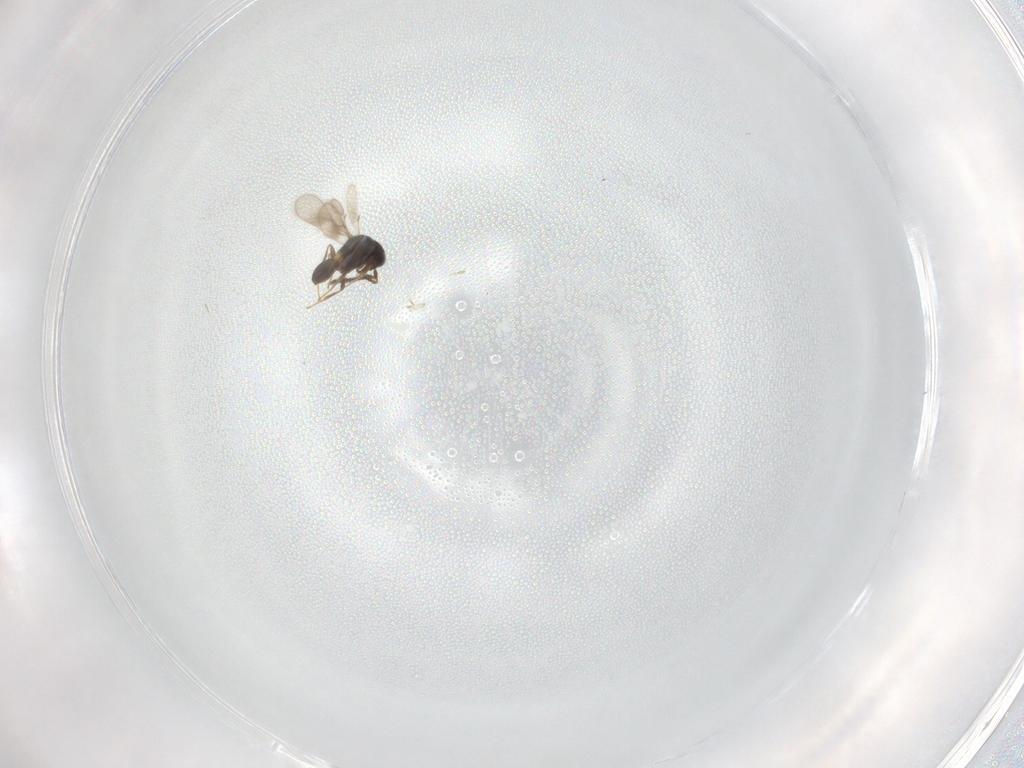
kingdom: Animalia
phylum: Arthropoda
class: Insecta
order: Hymenoptera
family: Scelionidae
